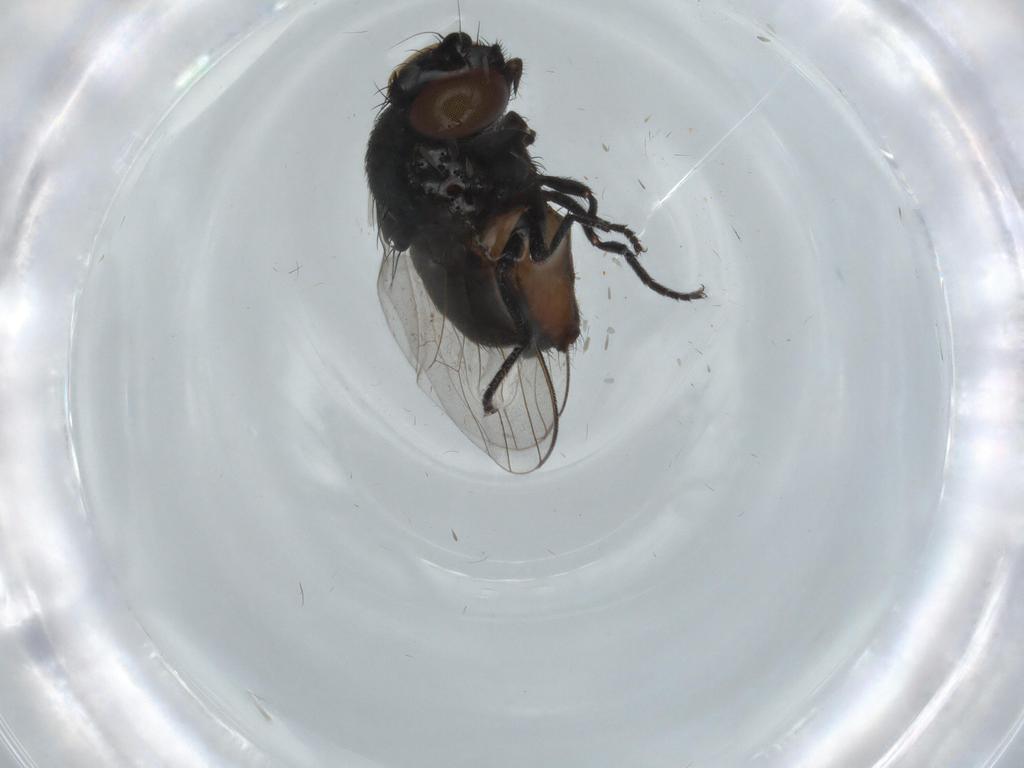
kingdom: Animalia
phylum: Arthropoda
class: Insecta
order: Diptera
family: Milichiidae
